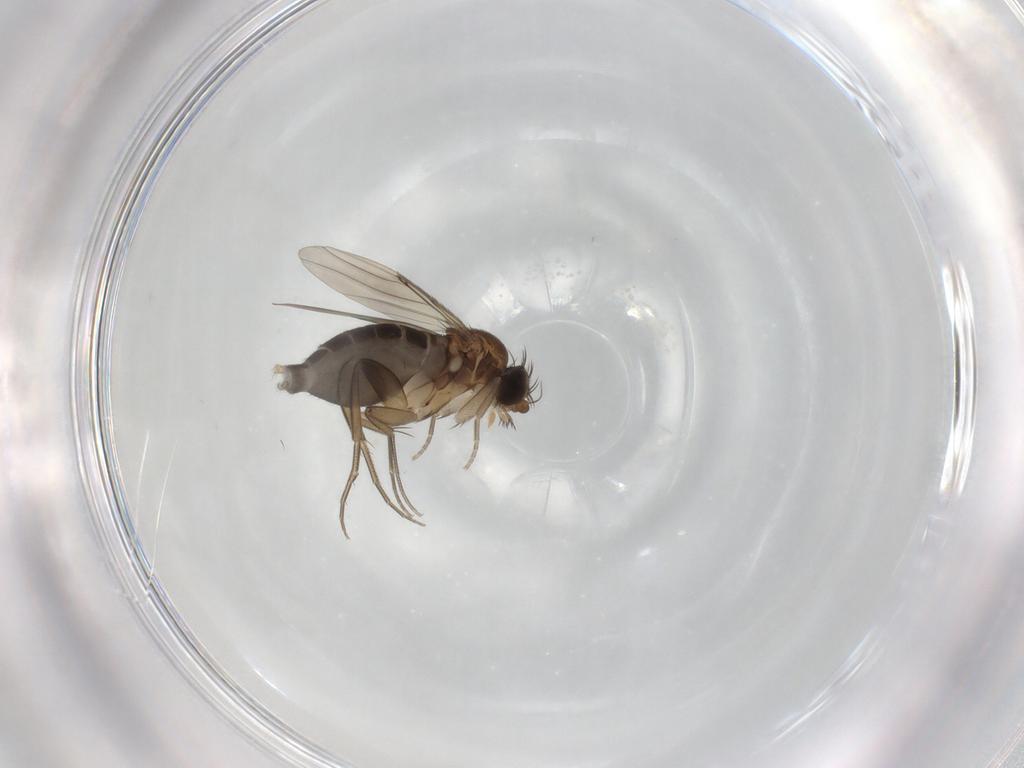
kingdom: Animalia
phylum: Arthropoda
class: Insecta
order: Diptera
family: Phoridae
